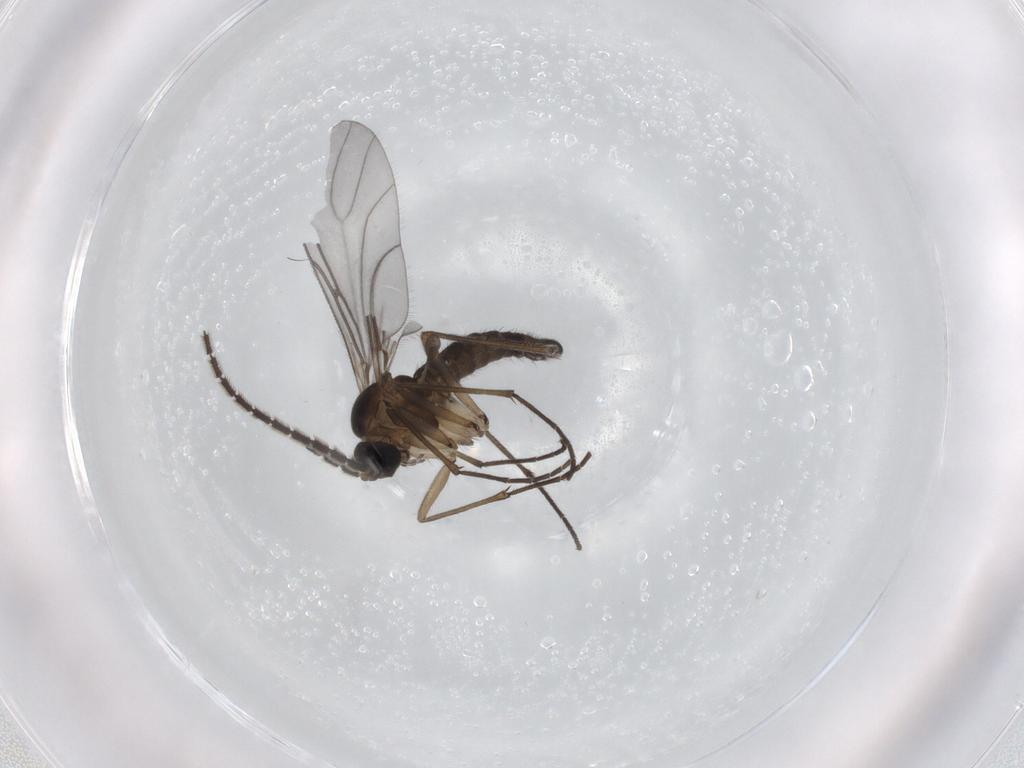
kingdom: Animalia
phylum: Arthropoda
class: Insecta
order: Diptera
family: Sciaridae
